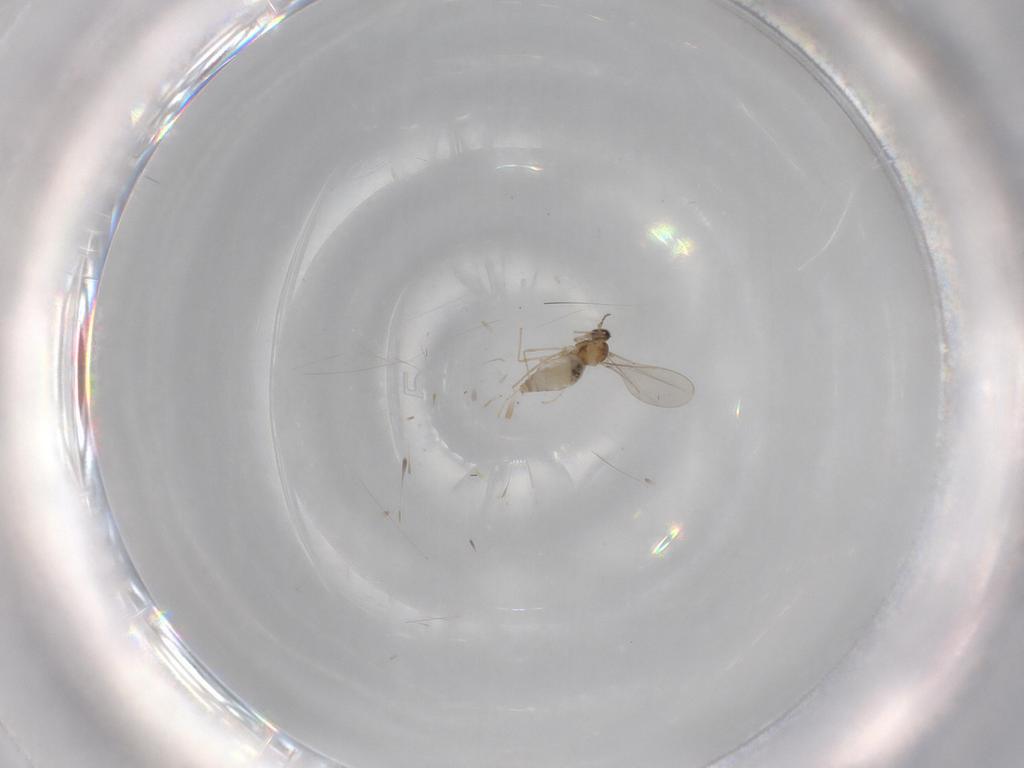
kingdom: Animalia
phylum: Arthropoda
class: Insecta
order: Diptera
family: Cecidomyiidae
